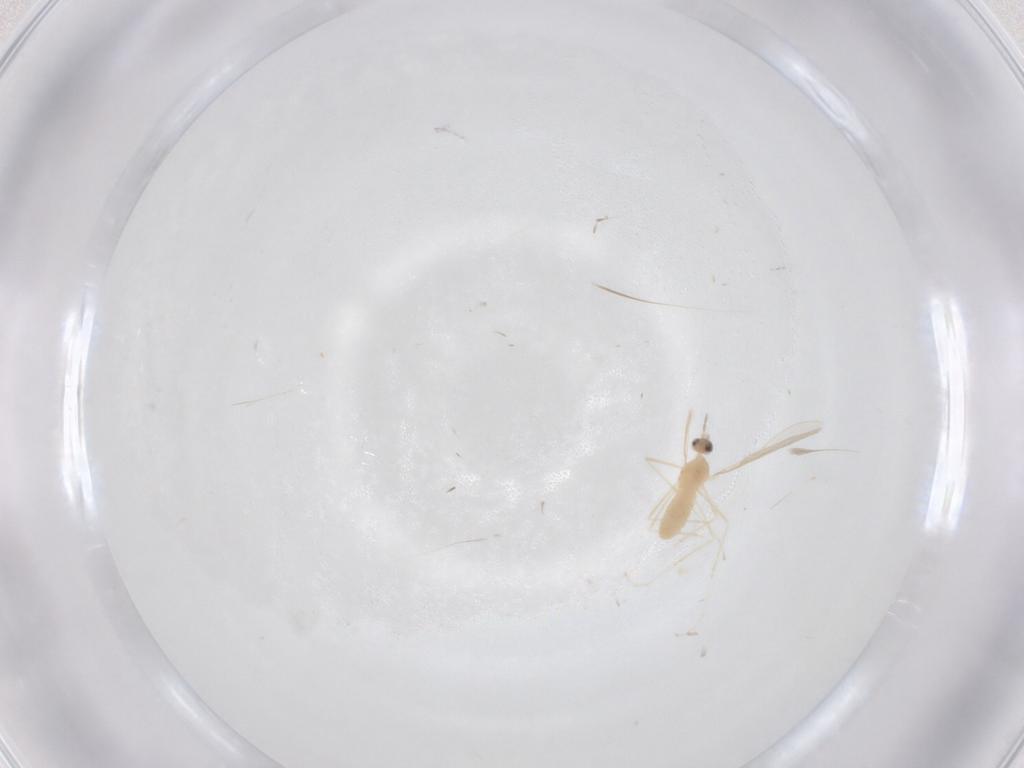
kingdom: Animalia
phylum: Arthropoda
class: Insecta
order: Diptera
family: Cecidomyiidae
